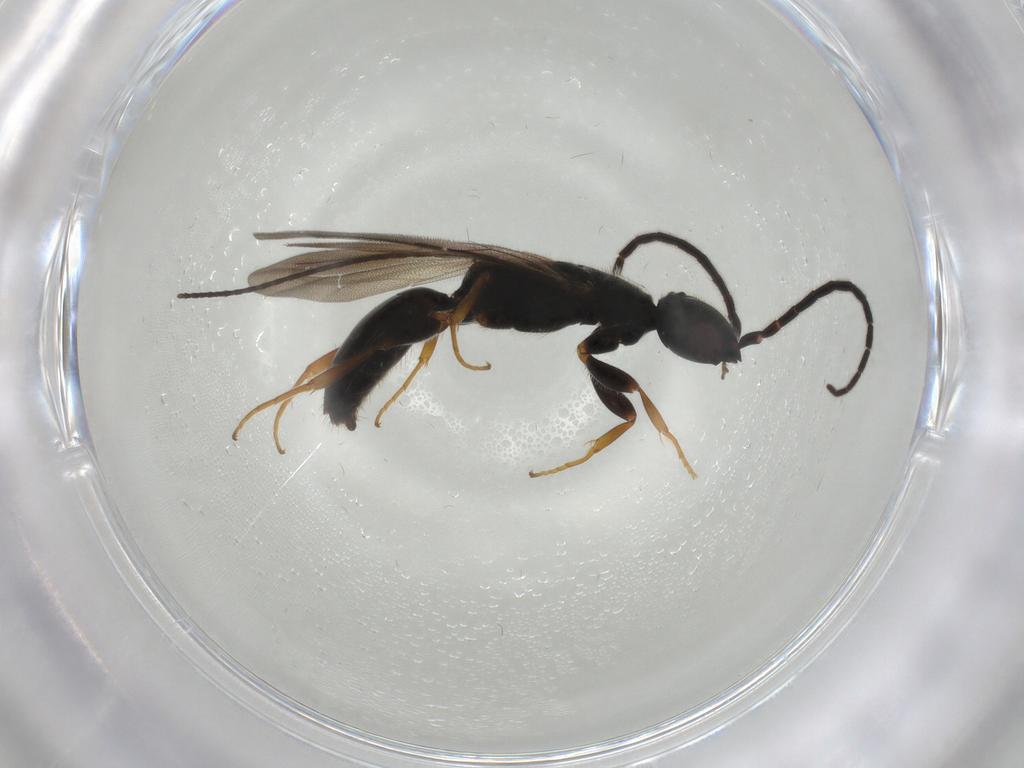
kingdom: Animalia
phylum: Arthropoda
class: Insecta
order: Hymenoptera
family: Bethylidae
